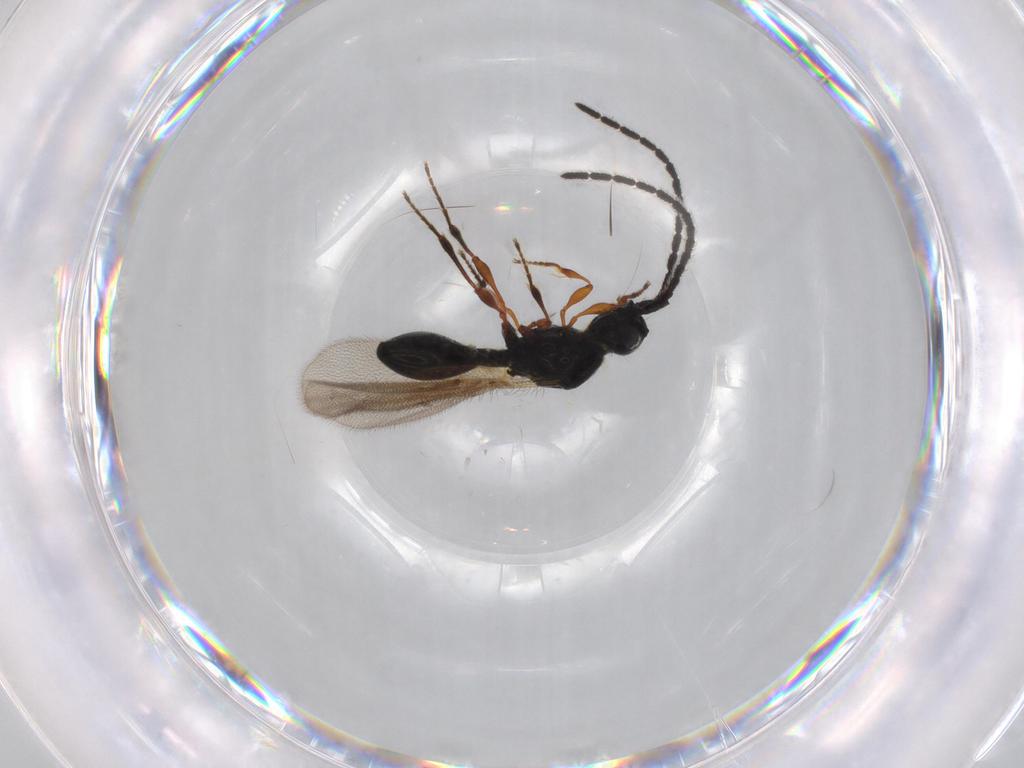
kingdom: Animalia
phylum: Arthropoda
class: Insecta
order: Hymenoptera
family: Diapriidae
